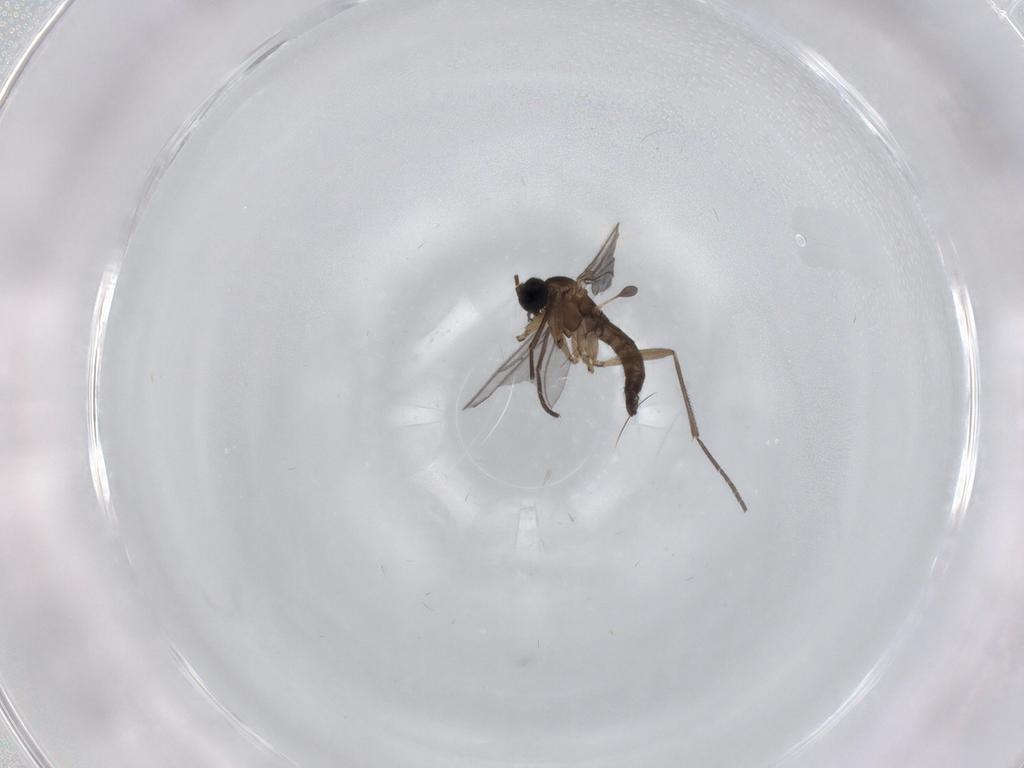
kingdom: Animalia
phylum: Arthropoda
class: Insecta
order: Diptera
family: Sciaridae
